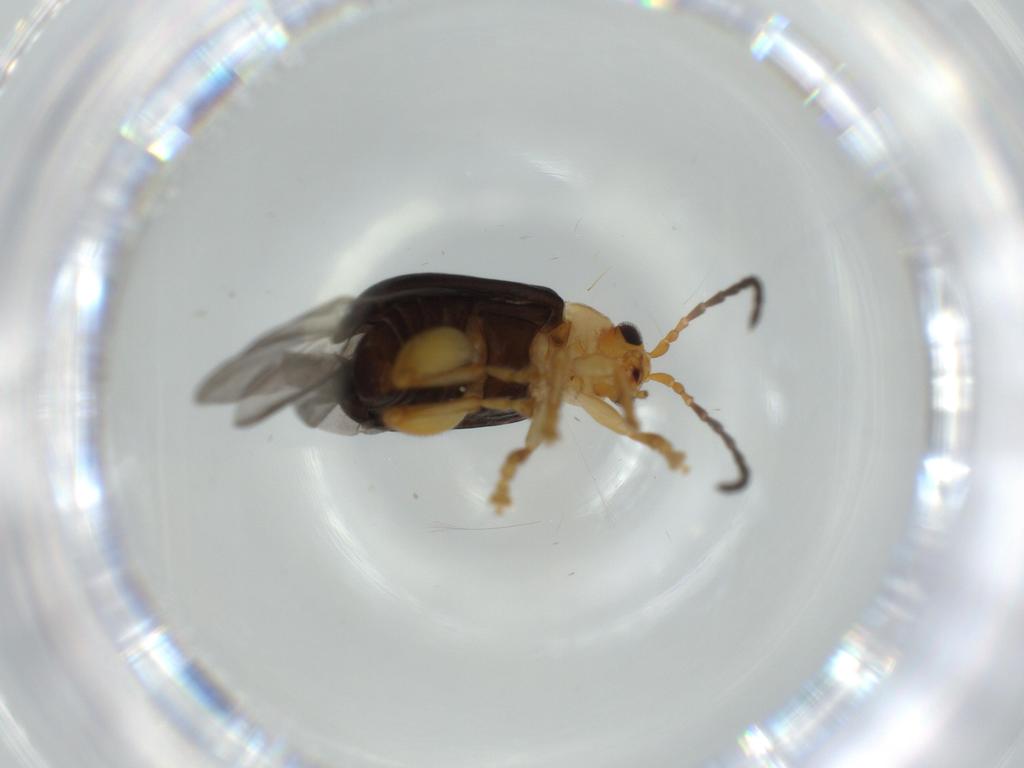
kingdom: Animalia
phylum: Arthropoda
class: Insecta
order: Coleoptera
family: Chrysomelidae
